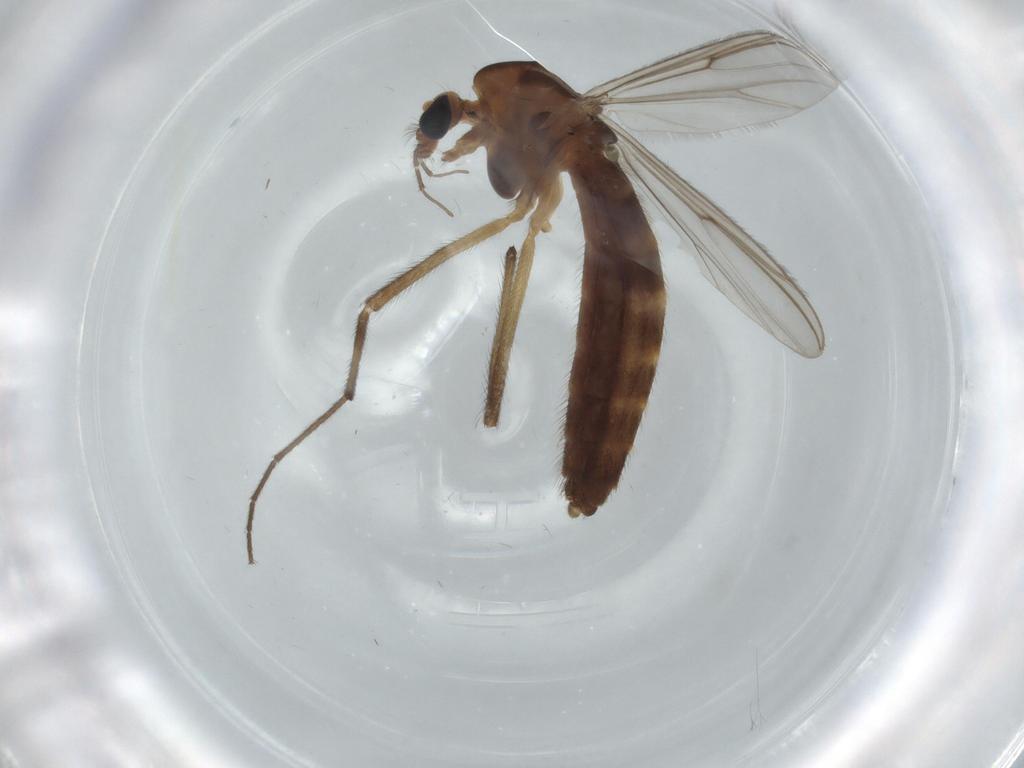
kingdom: Animalia
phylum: Arthropoda
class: Insecta
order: Diptera
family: Chironomidae
